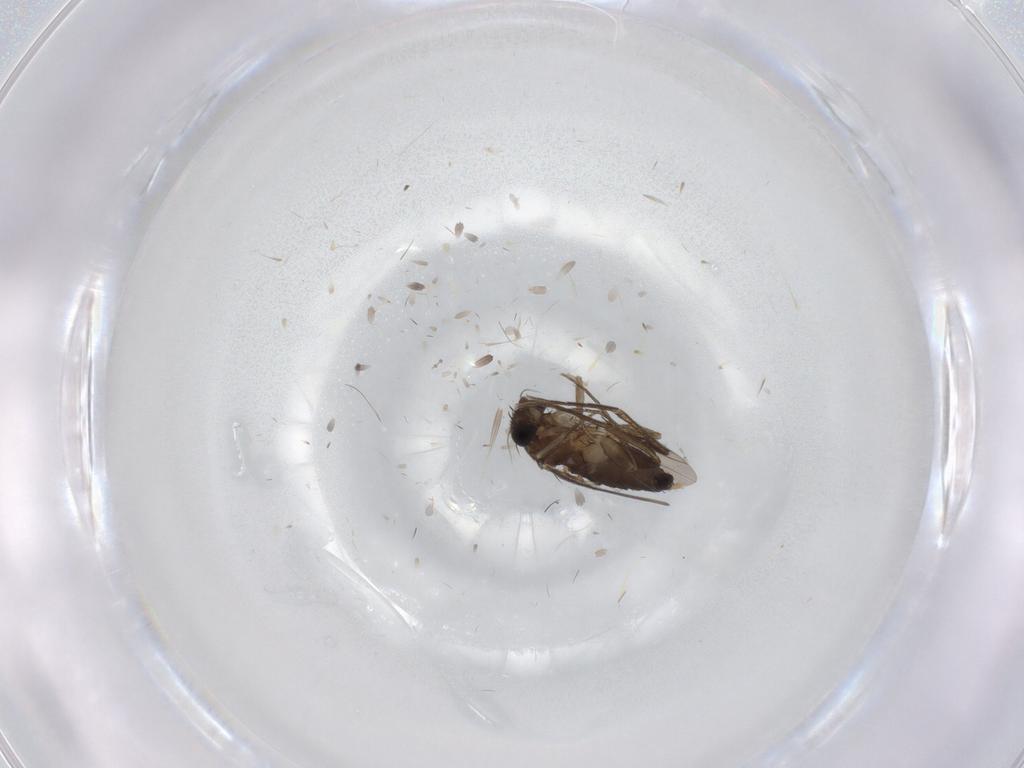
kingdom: Animalia
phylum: Arthropoda
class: Insecta
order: Diptera
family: Phoridae
